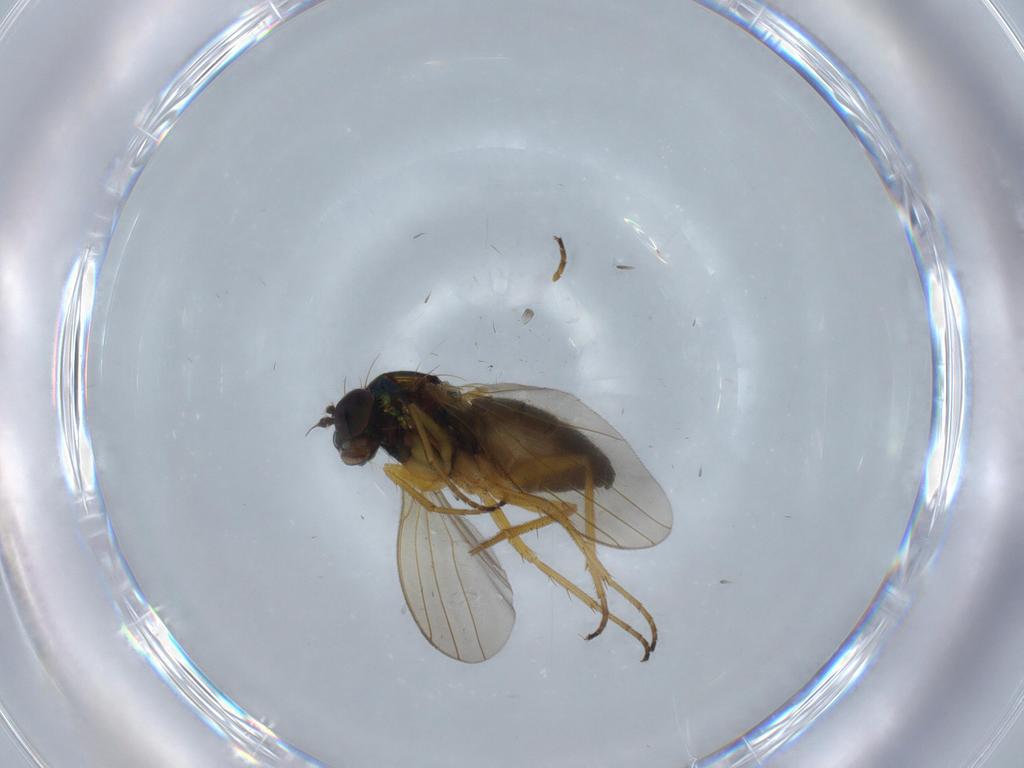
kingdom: Animalia
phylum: Arthropoda
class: Insecta
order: Diptera
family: Dolichopodidae
